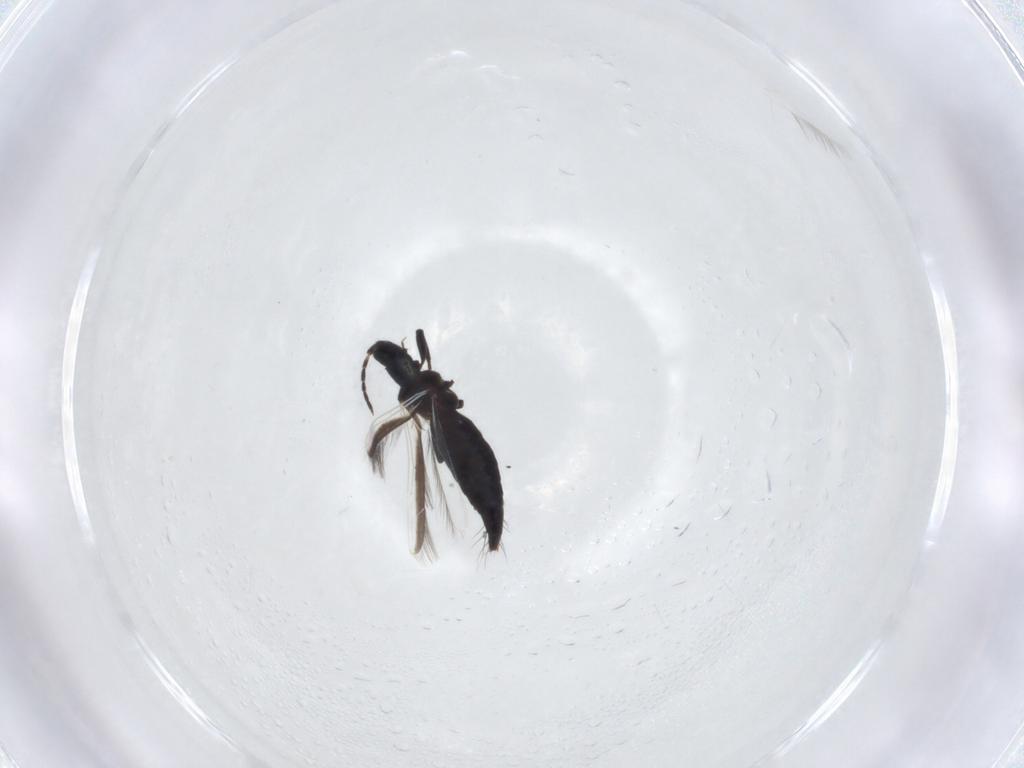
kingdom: Animalia
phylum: Arthropoda
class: Insecta
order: Thysanoptera
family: Aeolothripidae
